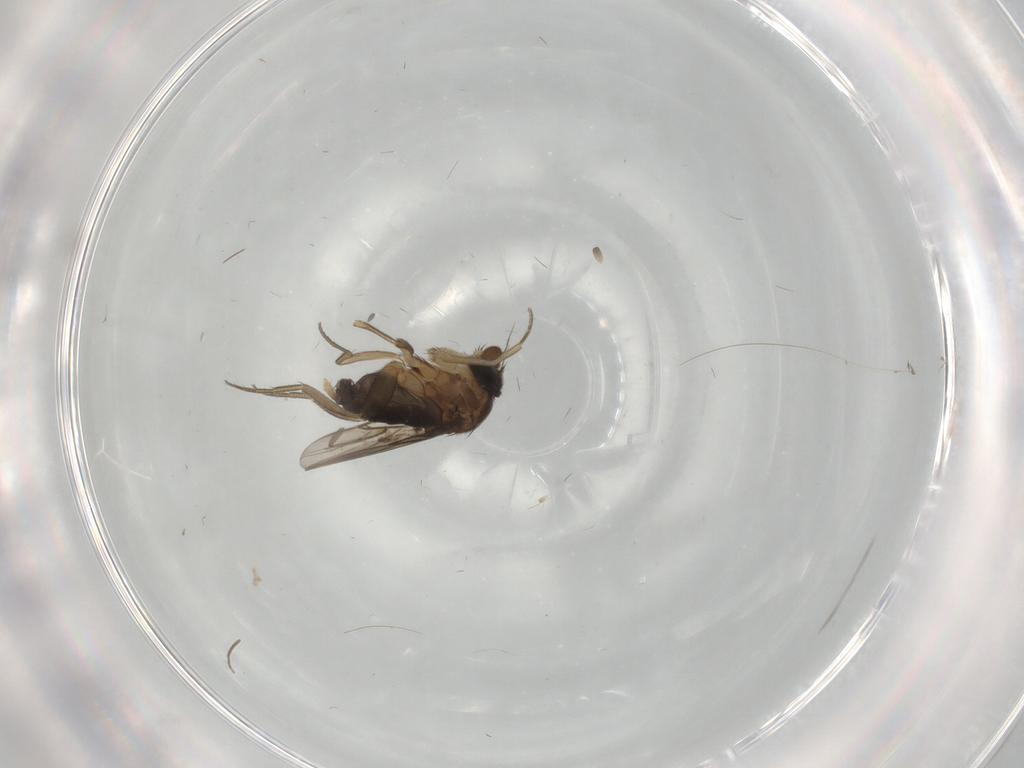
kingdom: Animalia
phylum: Arthropoda
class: Insecta
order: Diptera
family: Phoridae
